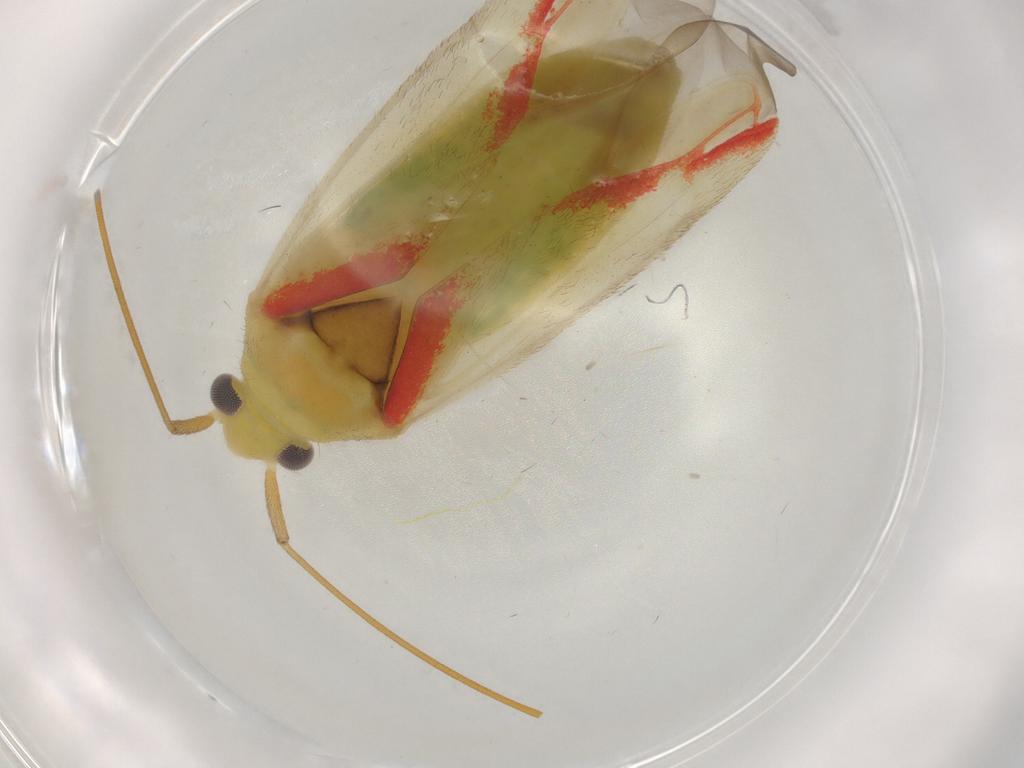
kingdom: Animalia
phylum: Arthropoda
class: Insecta
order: Hemiptera
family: Miridae
